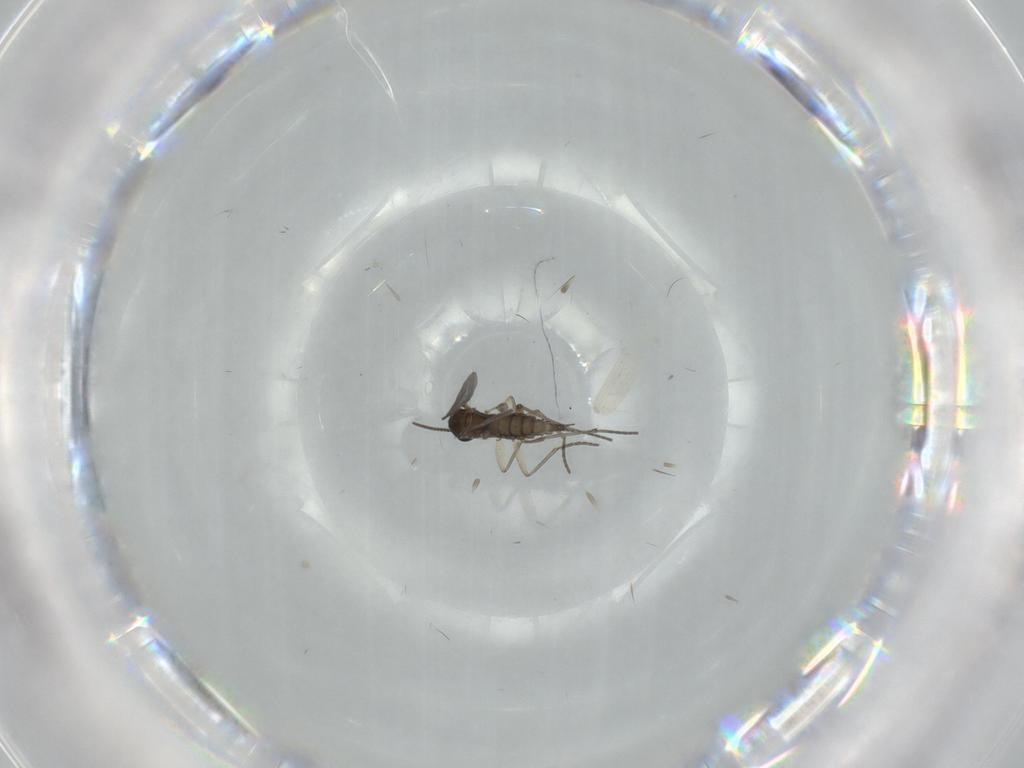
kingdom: Animalia
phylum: Arthropoda
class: Insecta
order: Diptera
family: Sciaridae
